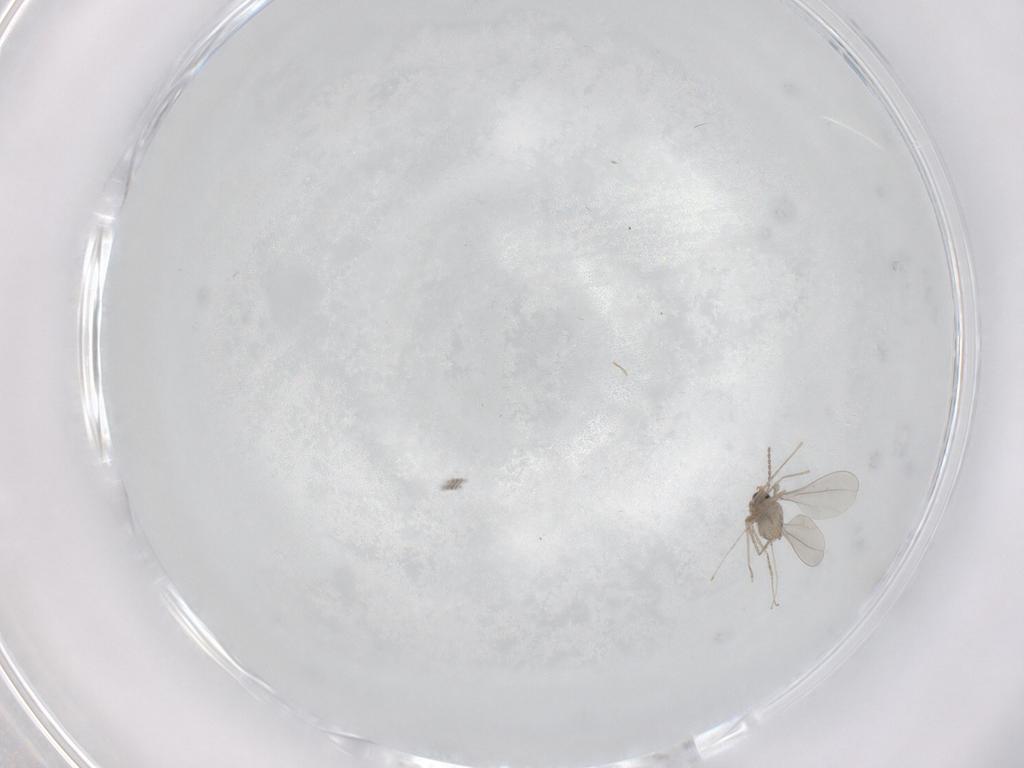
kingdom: Animalia
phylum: Arthropoda
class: Insecta
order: Diptera
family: Cecidomyiidae
